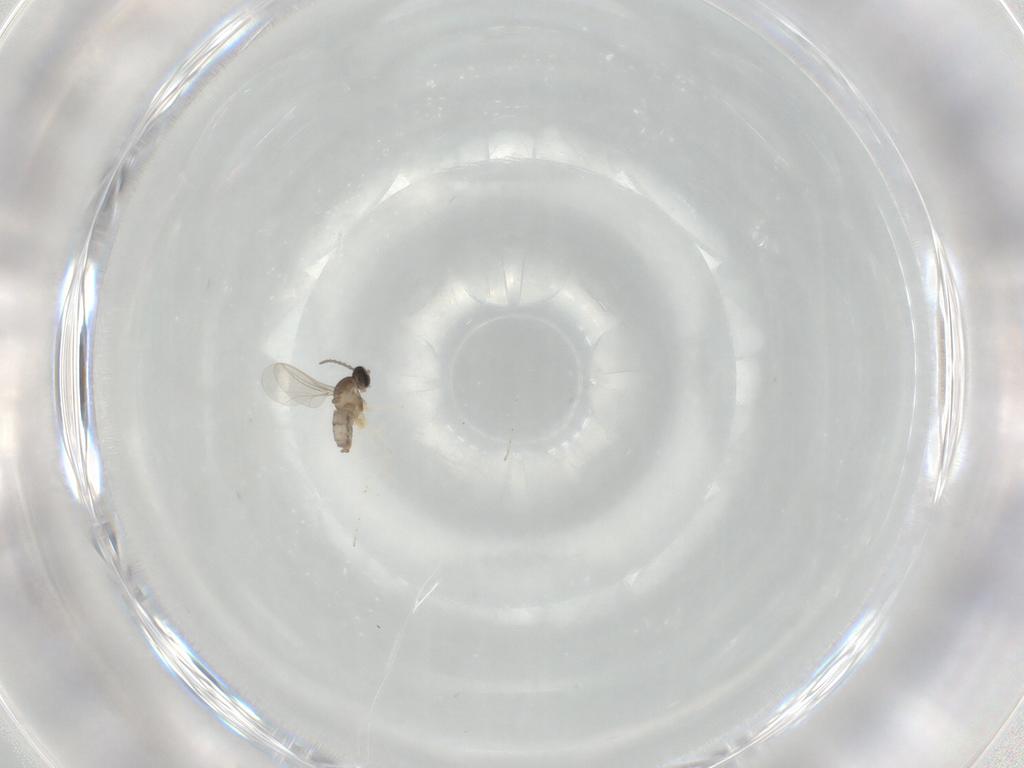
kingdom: Animalia
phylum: Arthropoda
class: Insecta
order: Diptera
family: Cecidomyiidae
